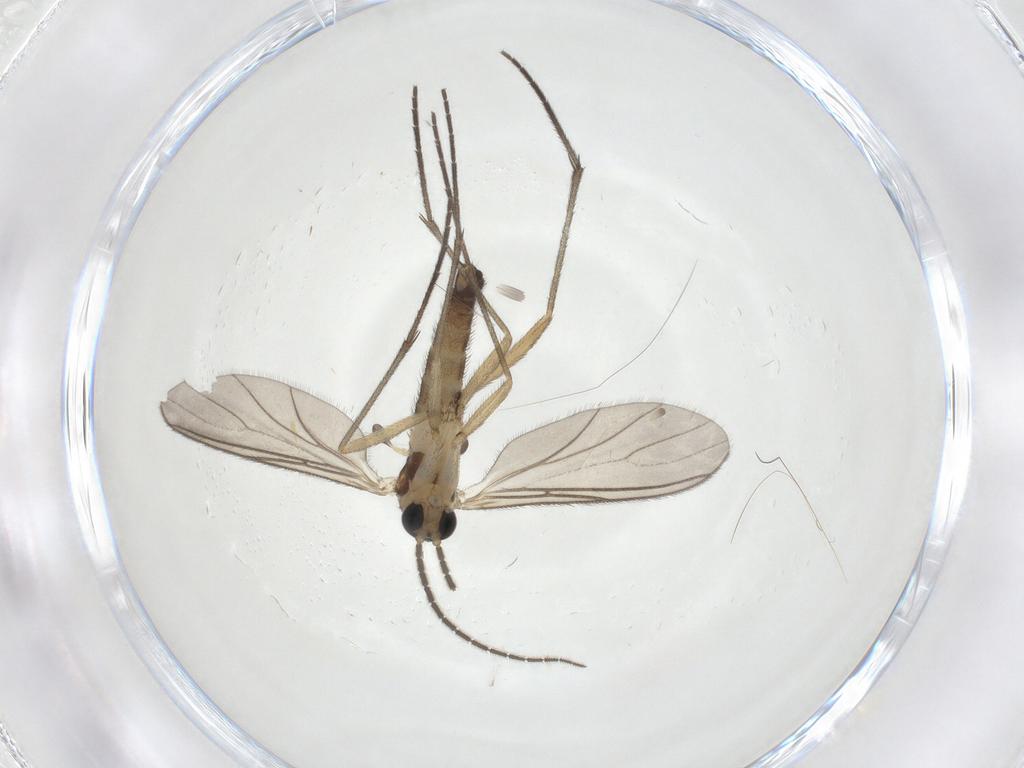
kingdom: Animalia
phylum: Arthropoda
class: Insecta
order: Diptera
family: Sciaridae
